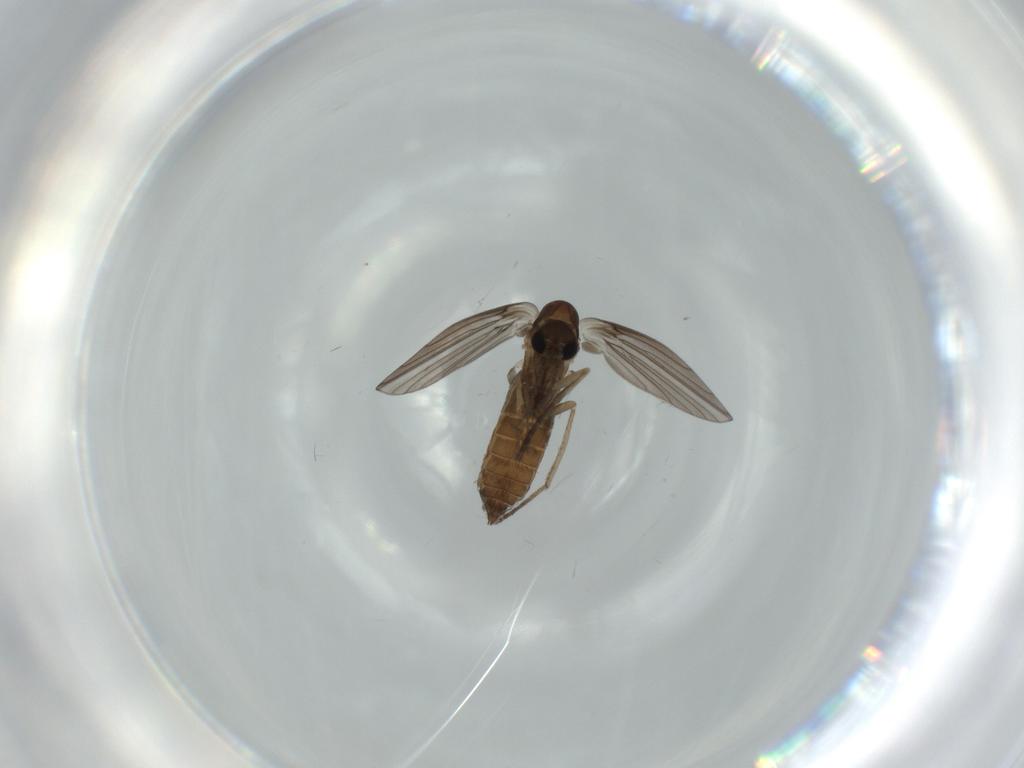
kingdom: Animalia
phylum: Arthropoda
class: Insecta
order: Diptera
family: Psychodidae
